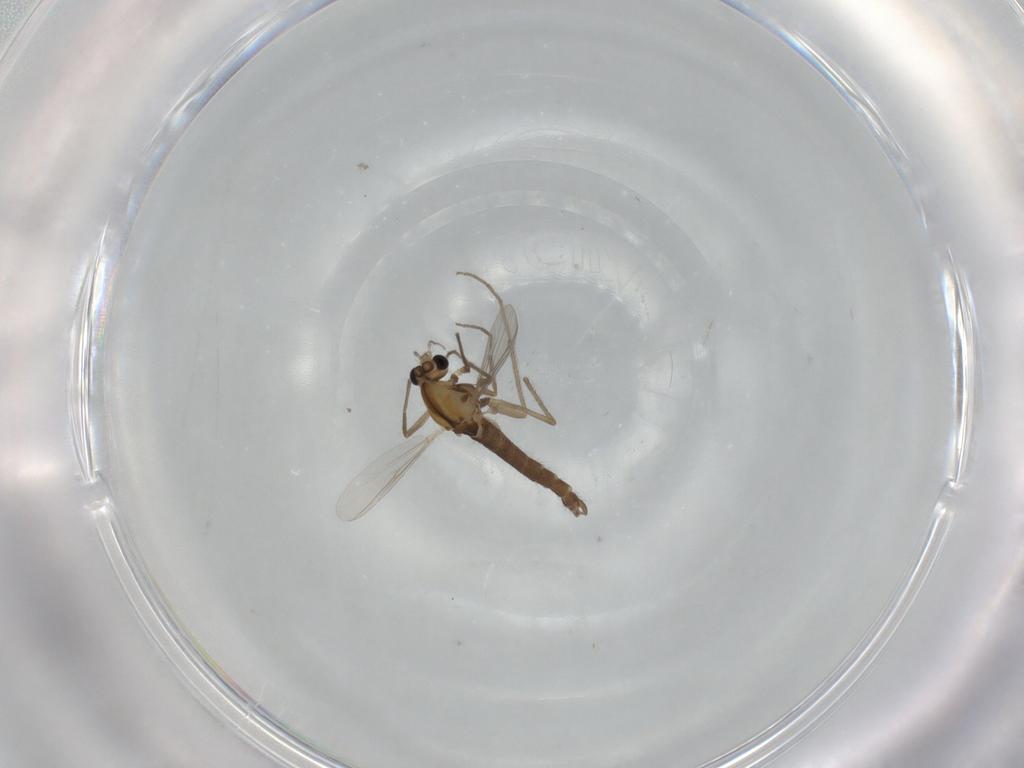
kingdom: Animalia
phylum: Arthropoda
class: Insecta
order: Diptera
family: Chironomidae
